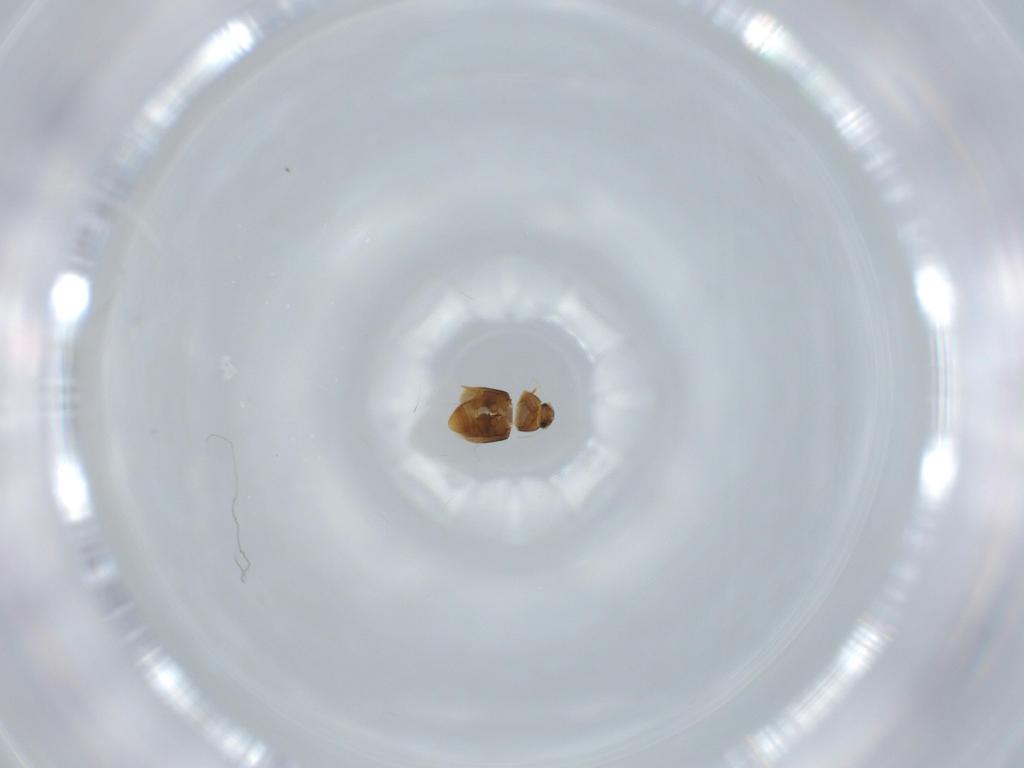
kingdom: Animalia
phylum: Arthropoda
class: Insecta
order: Coleoptera
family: Ptiliidae
